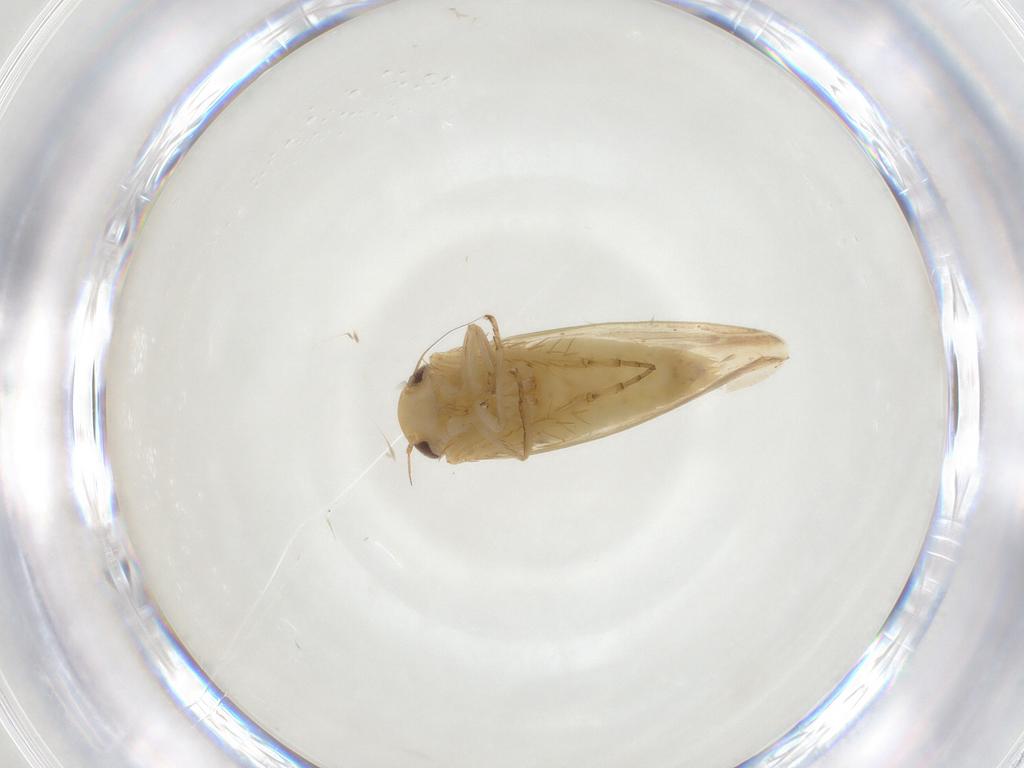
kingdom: Animalia
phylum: Arthropoda
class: Insecta
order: Hemiptera
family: Cicadellidae
